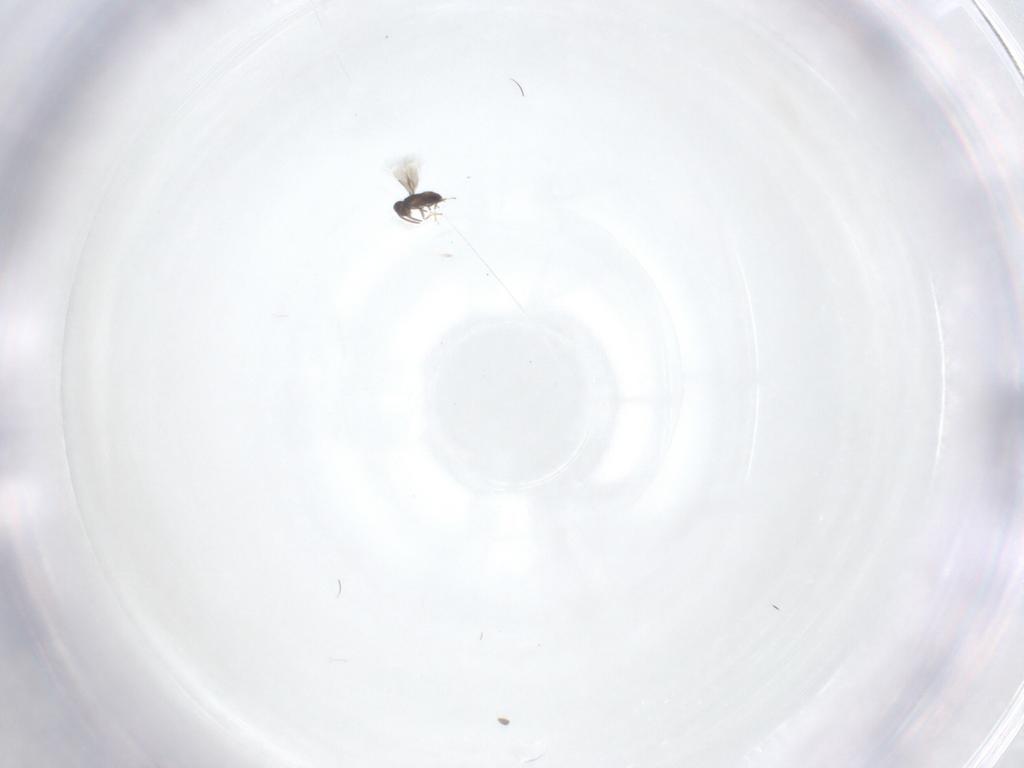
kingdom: Animalia
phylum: Arthropoda
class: Insecta
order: Hymenoptera
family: Signiphoridae
